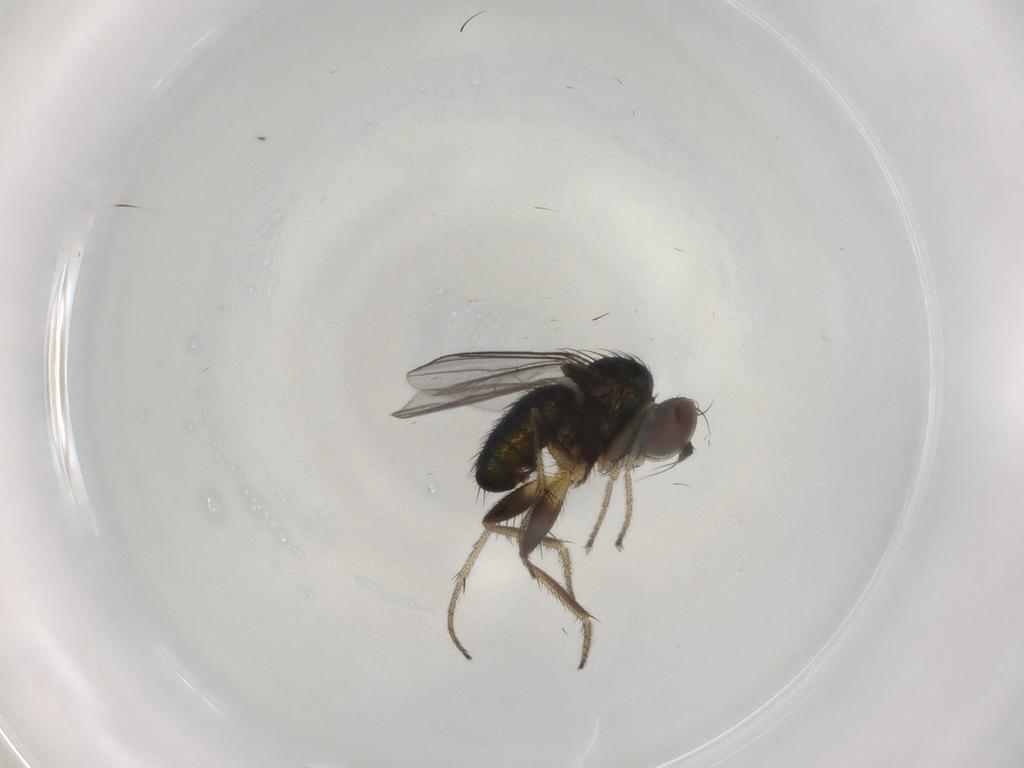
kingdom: Animalia
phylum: Arthropoda
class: Insecta
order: Diptera
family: Dolichopodidae
